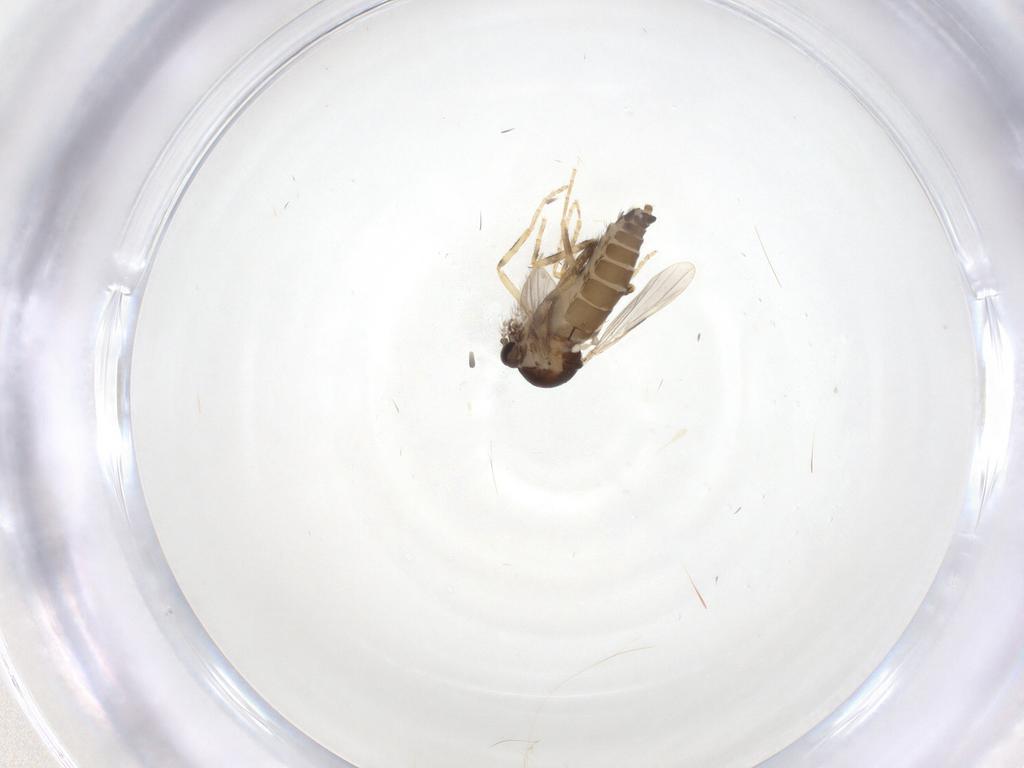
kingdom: Animalia
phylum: Arthropoda
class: Insecta
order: Diptera
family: Ceratopogonidae
